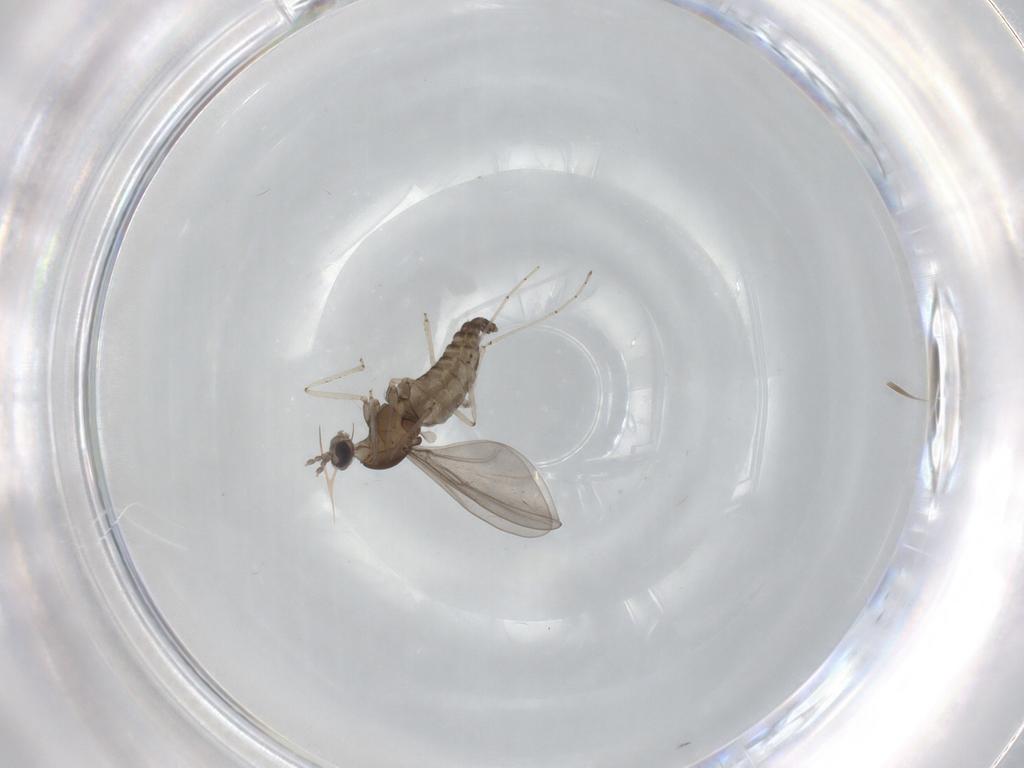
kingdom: Animalia
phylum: Arthropoda
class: Insecta
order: Diptera
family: Cecidomyiidae
